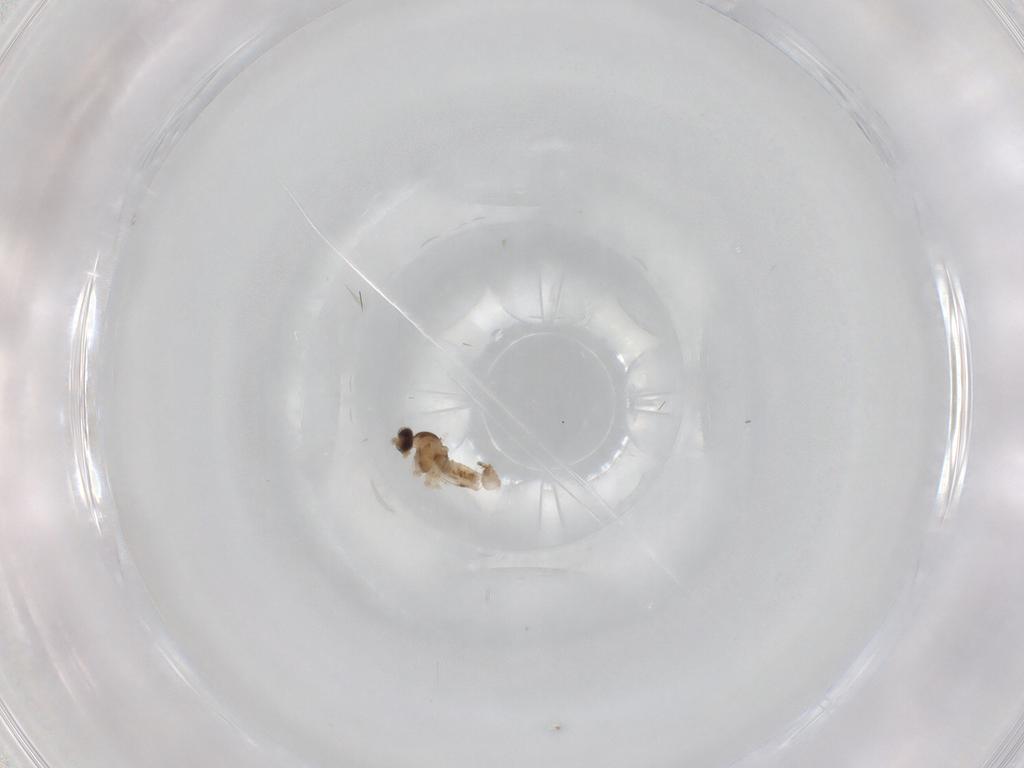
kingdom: Animalia
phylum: Arthropoda
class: Insecta
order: Diptera
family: Cecidomyiidae
